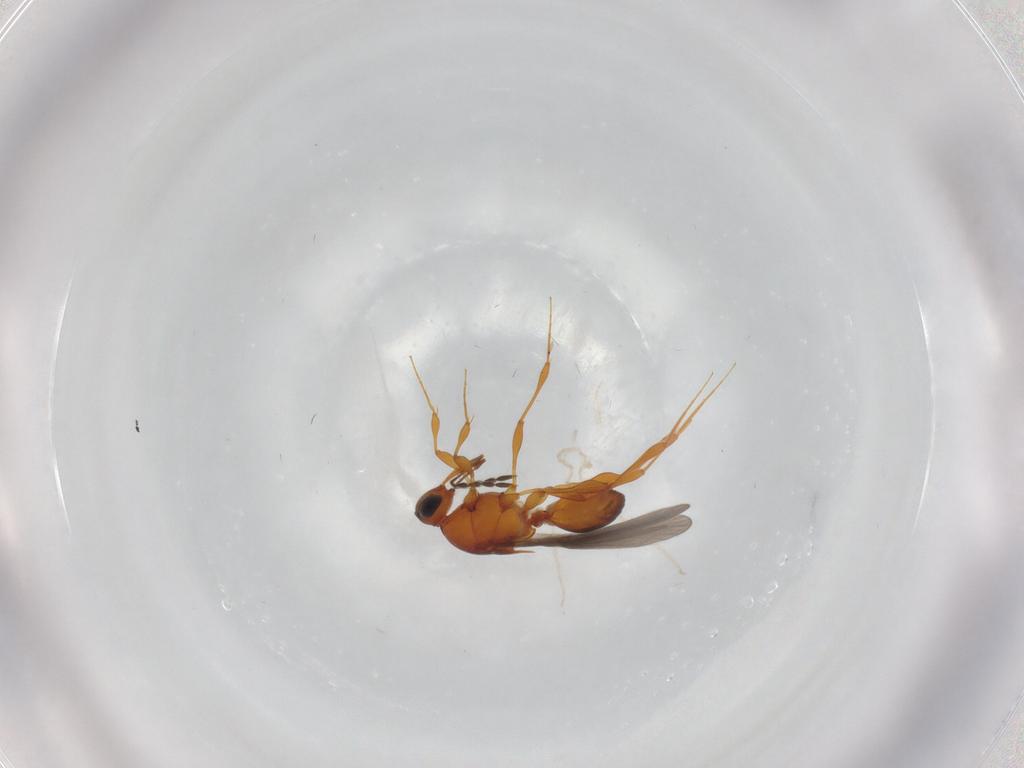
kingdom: Animalia
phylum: Arthropoda
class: Insecta
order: Hymenoptera
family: Platygastridae
